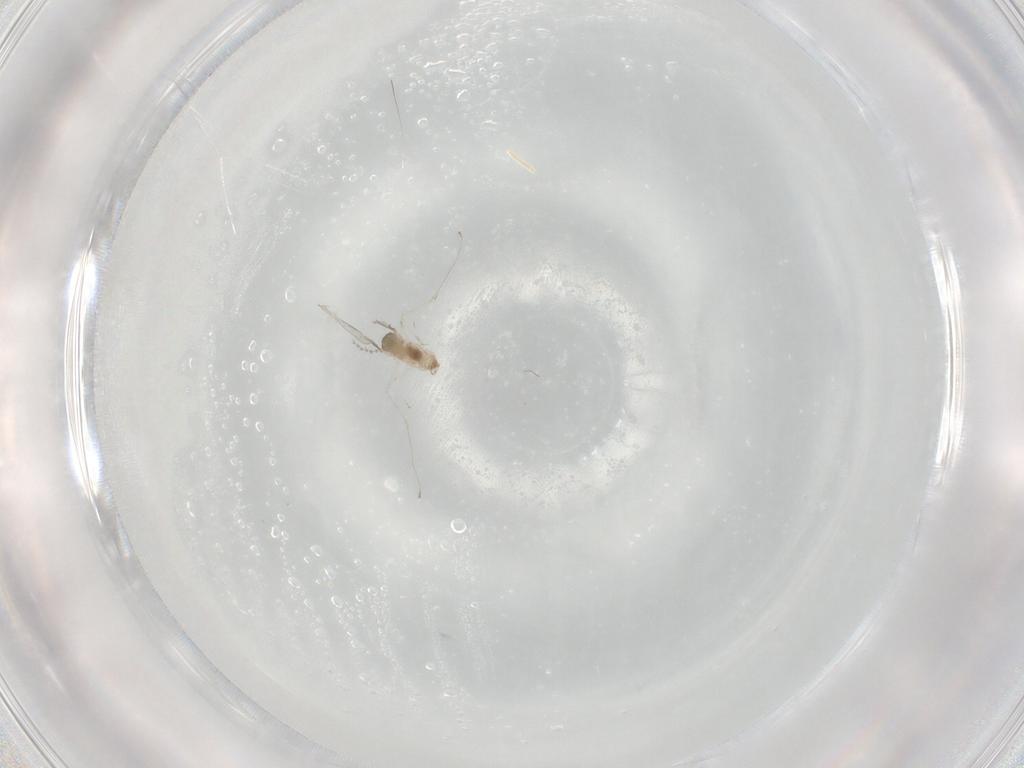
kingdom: Animalia
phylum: Arthropoda
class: Insecta
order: Diptera
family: Cecidomyiidae
